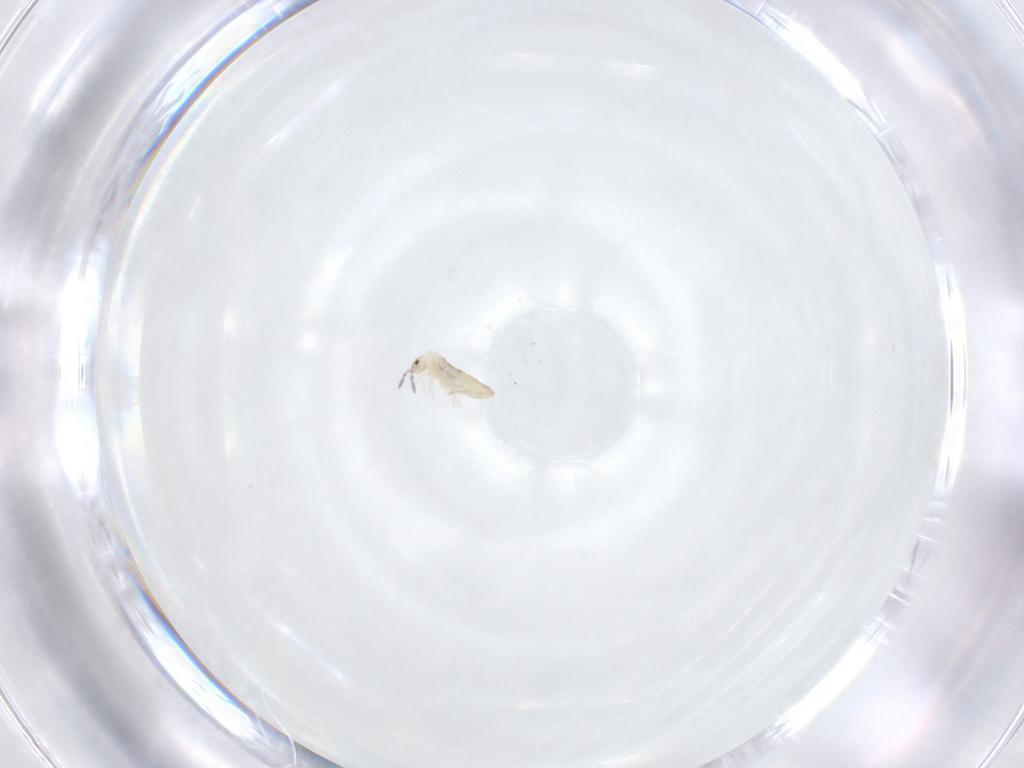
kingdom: Animalia
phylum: Arthropoda
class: Collembola
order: Entomobryomorpha
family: Entomobryidae
